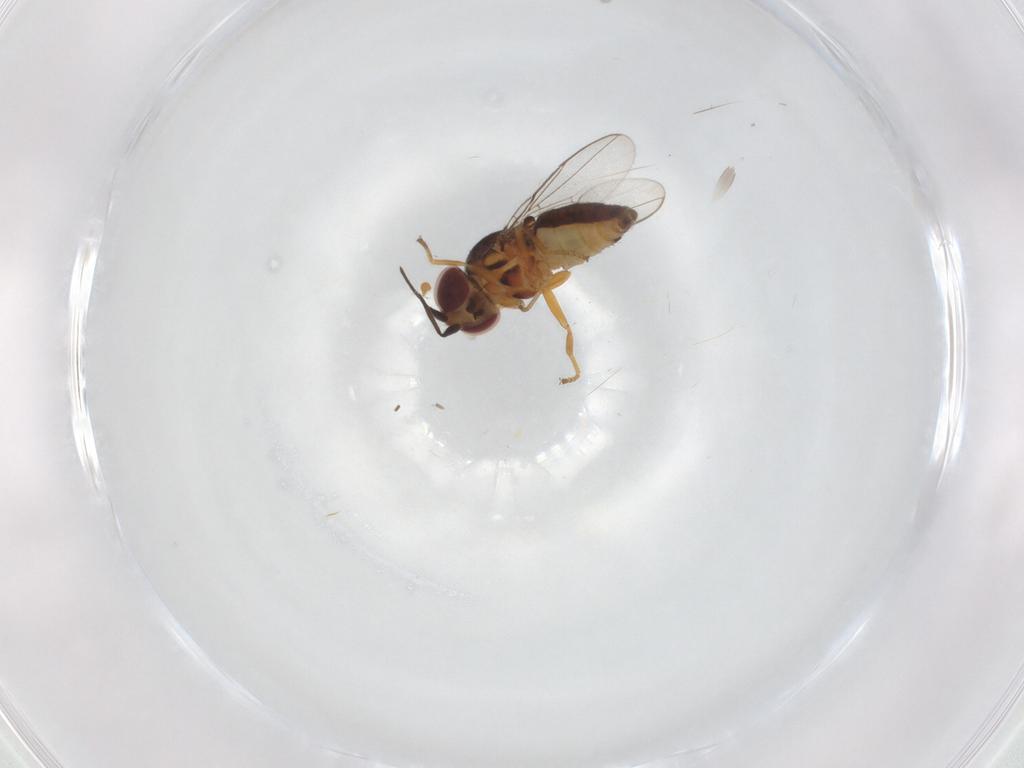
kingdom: Animalia
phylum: Arthropoda
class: Insecta
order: Diptera
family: Chloropidae
